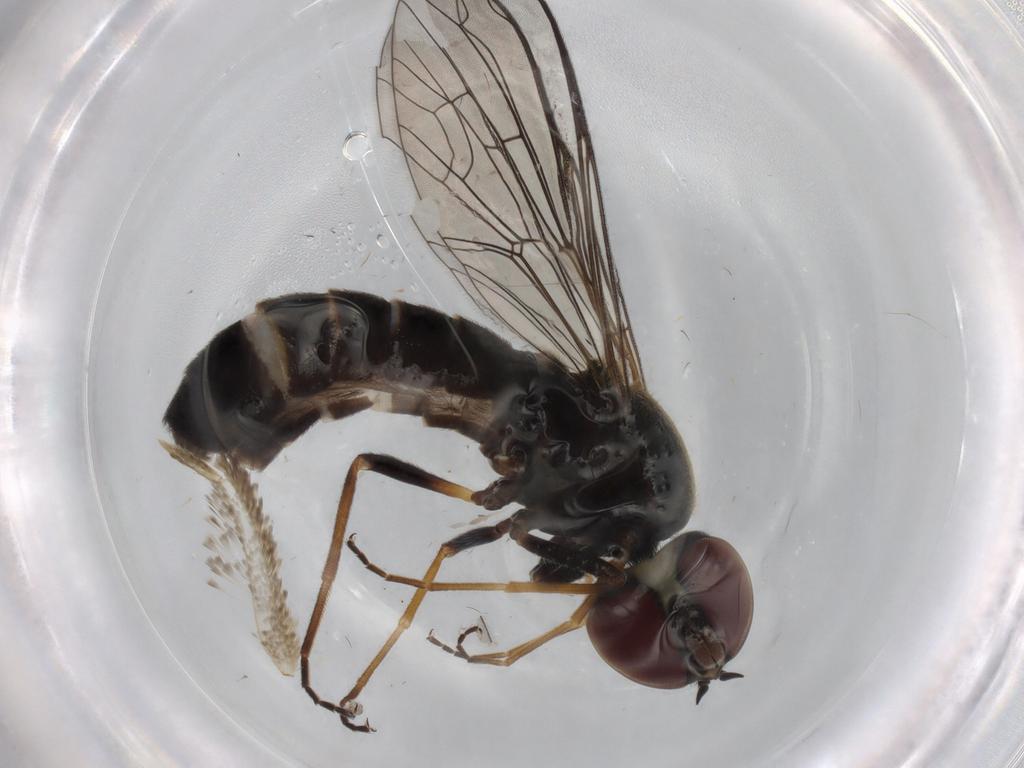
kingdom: Animalia
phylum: Arthropoda
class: Insecta
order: Diptera
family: Bombyliidae
